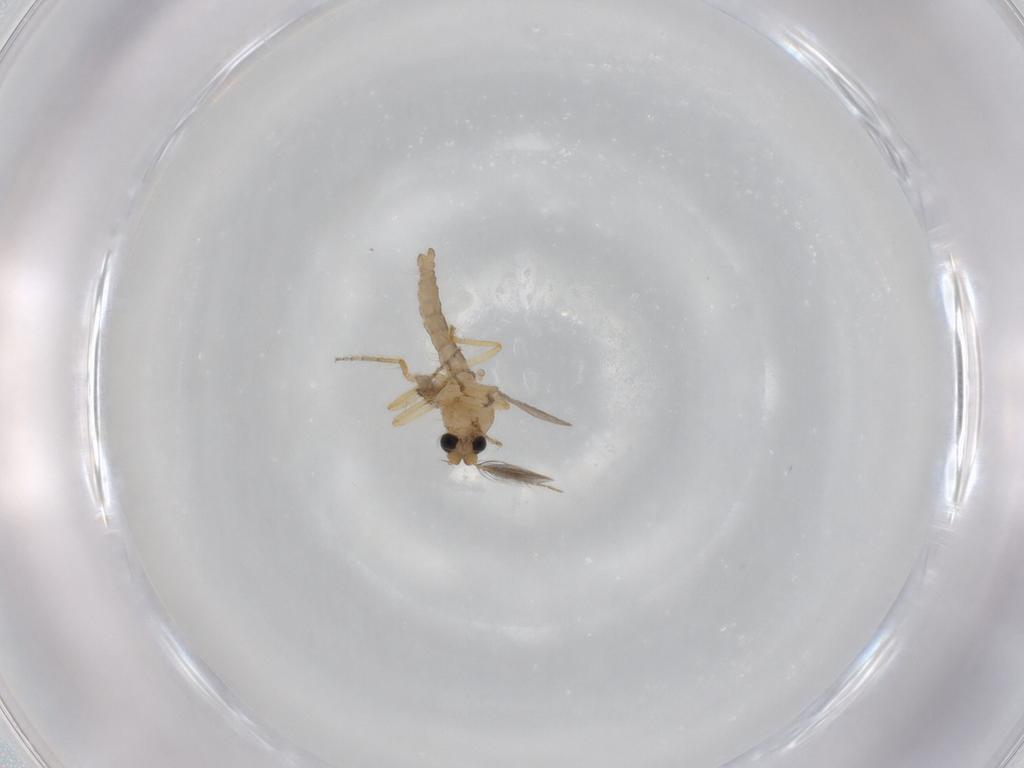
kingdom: Animalia
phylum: Arthropoda
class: Insecta
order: Diptera
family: Ceratopogonidae
